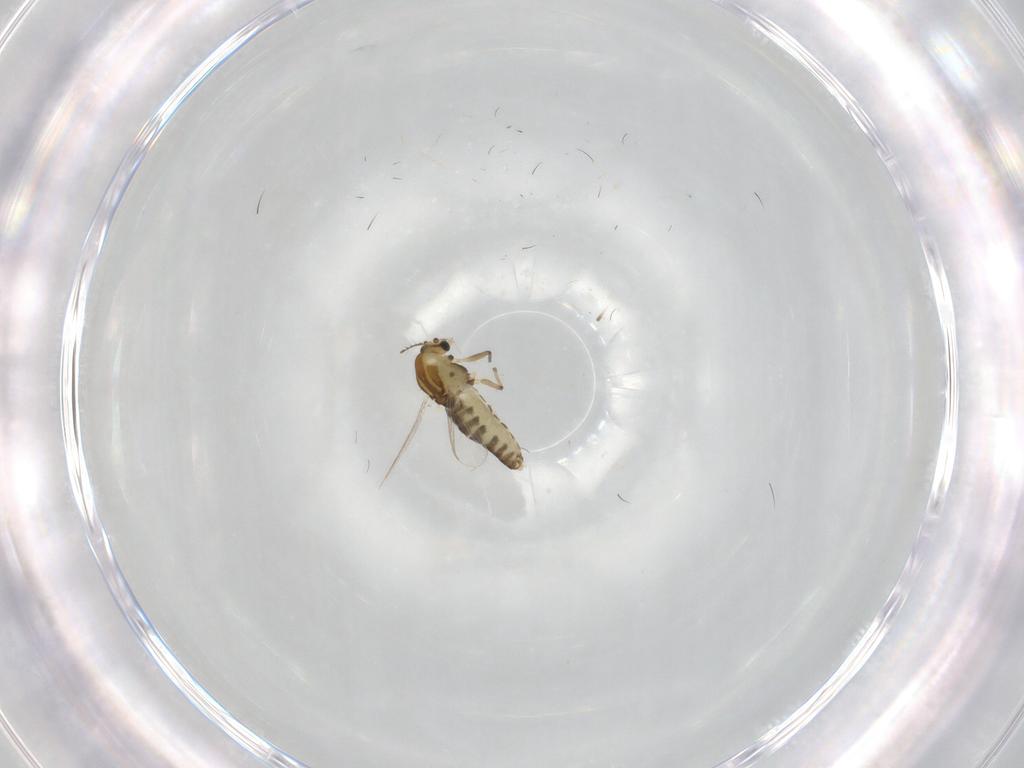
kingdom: Animalia
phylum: Arthropoda
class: Insecta
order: Diptera
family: Chironomidae
